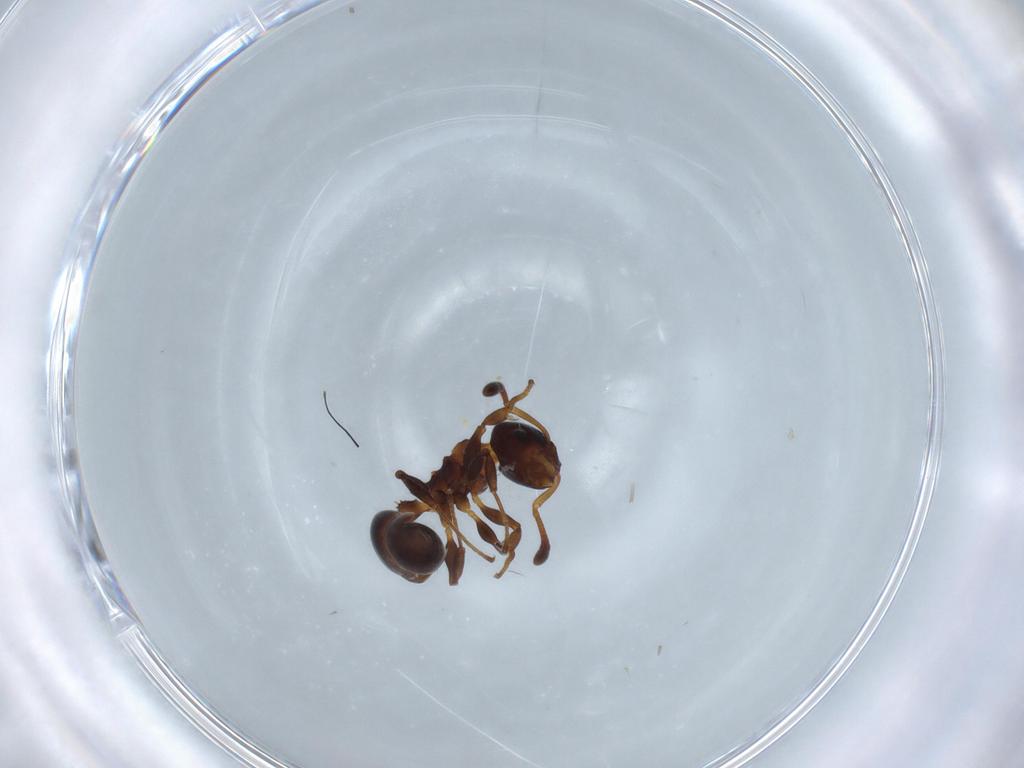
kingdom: Animalia
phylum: Arthropoda
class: Insecta
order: Hymenoptera
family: Formicidae
